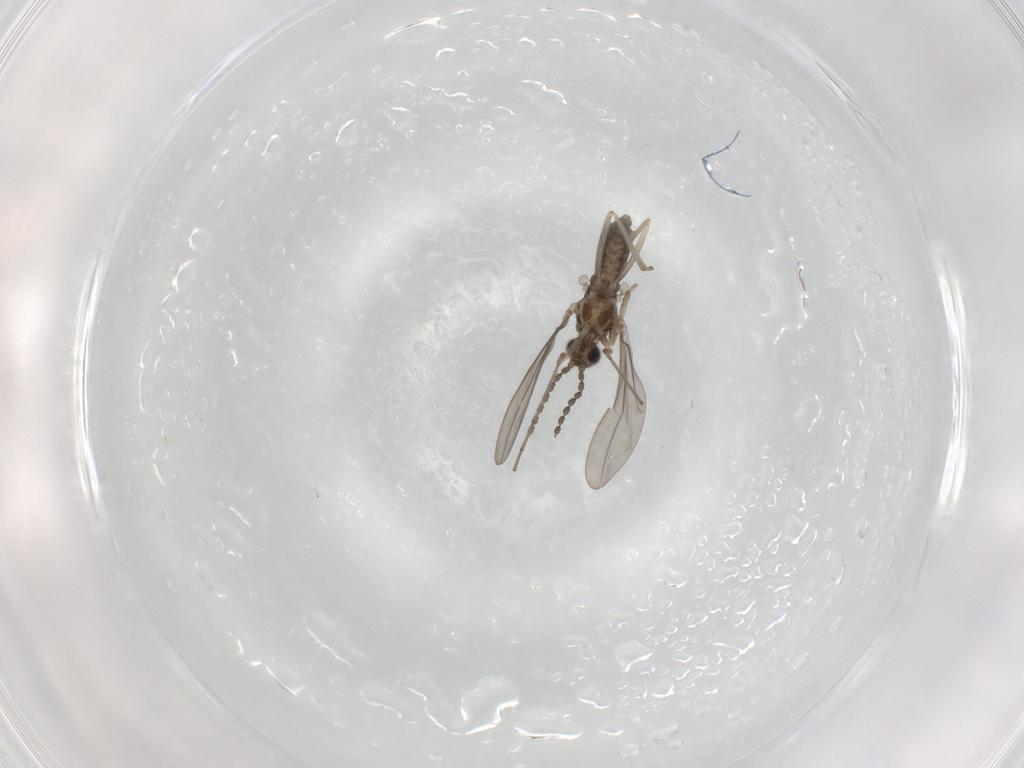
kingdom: Animalia
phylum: Arthropoda
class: Insecta
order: Diptera
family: Cecidomyiidae
